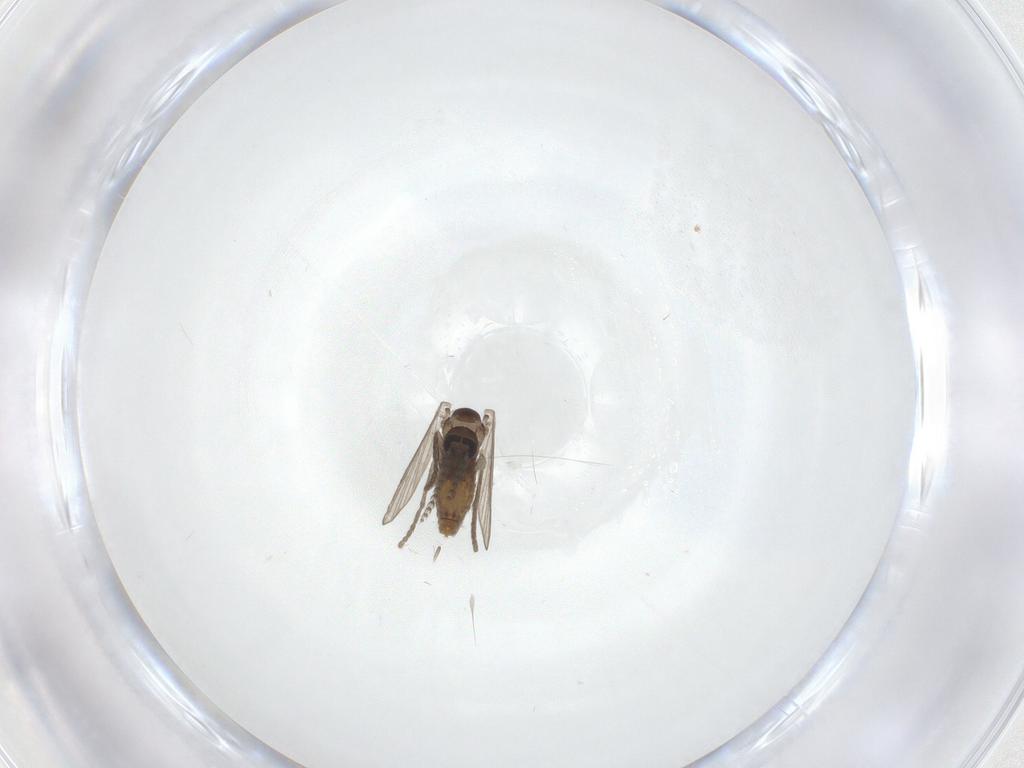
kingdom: Animalia
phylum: Arthropoda
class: Insecta
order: Diptera
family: Psychodidae
